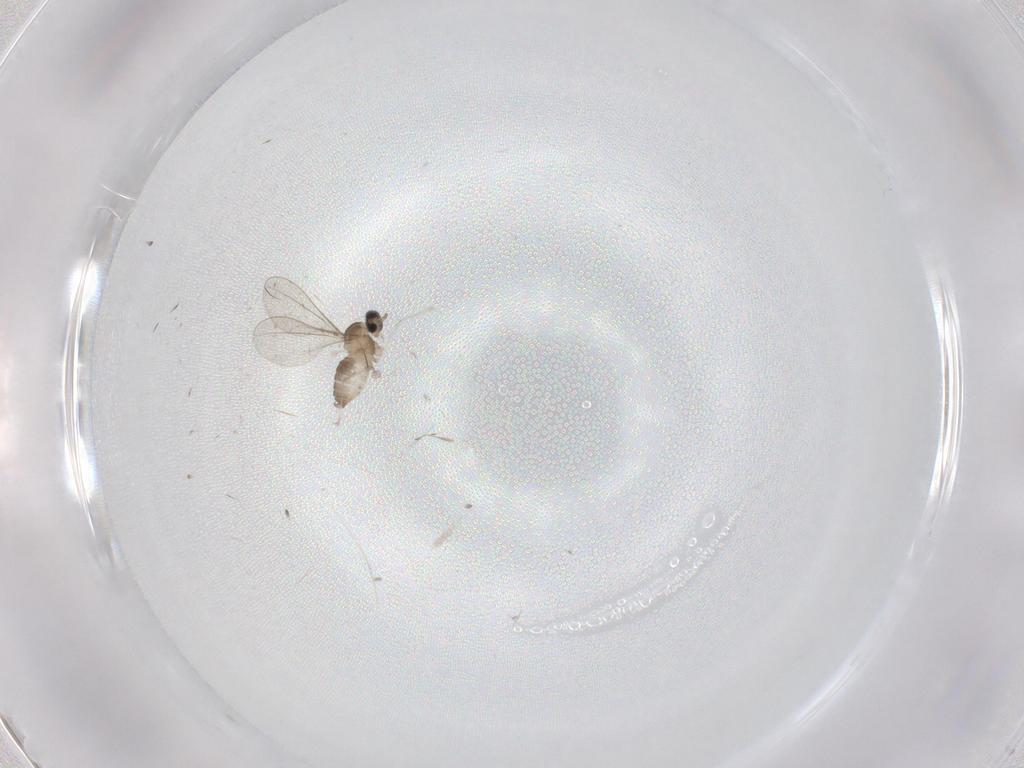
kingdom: Animalia
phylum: Arthropoda
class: Insecta
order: Diptera
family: Cecidomyiidae
